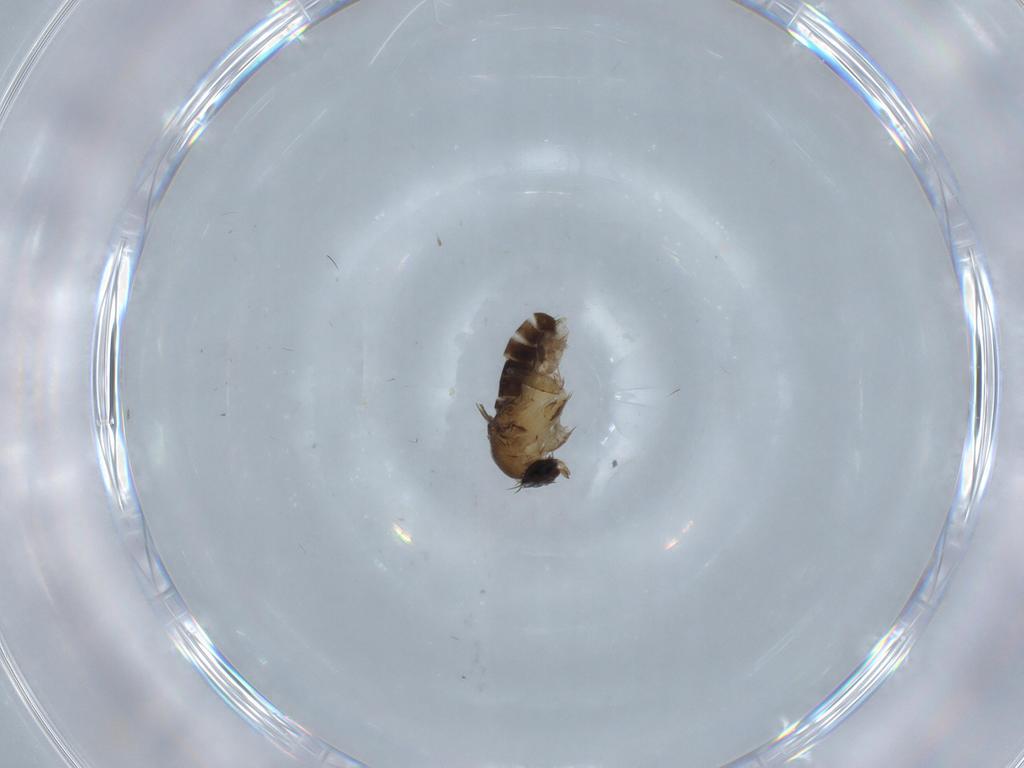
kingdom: Animalia
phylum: Arthropoda
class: Insecta
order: Diptera
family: Phoridae
